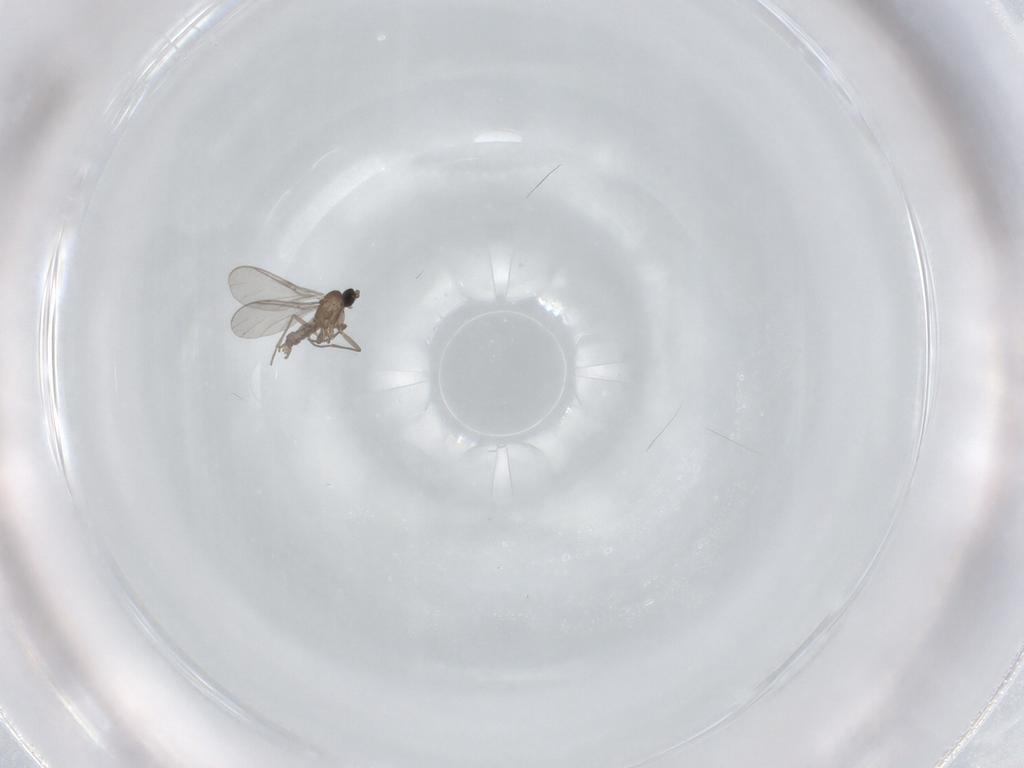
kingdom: Animalia
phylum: Arthropoda
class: Insecta
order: Diptera
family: Cecidomyiidae
